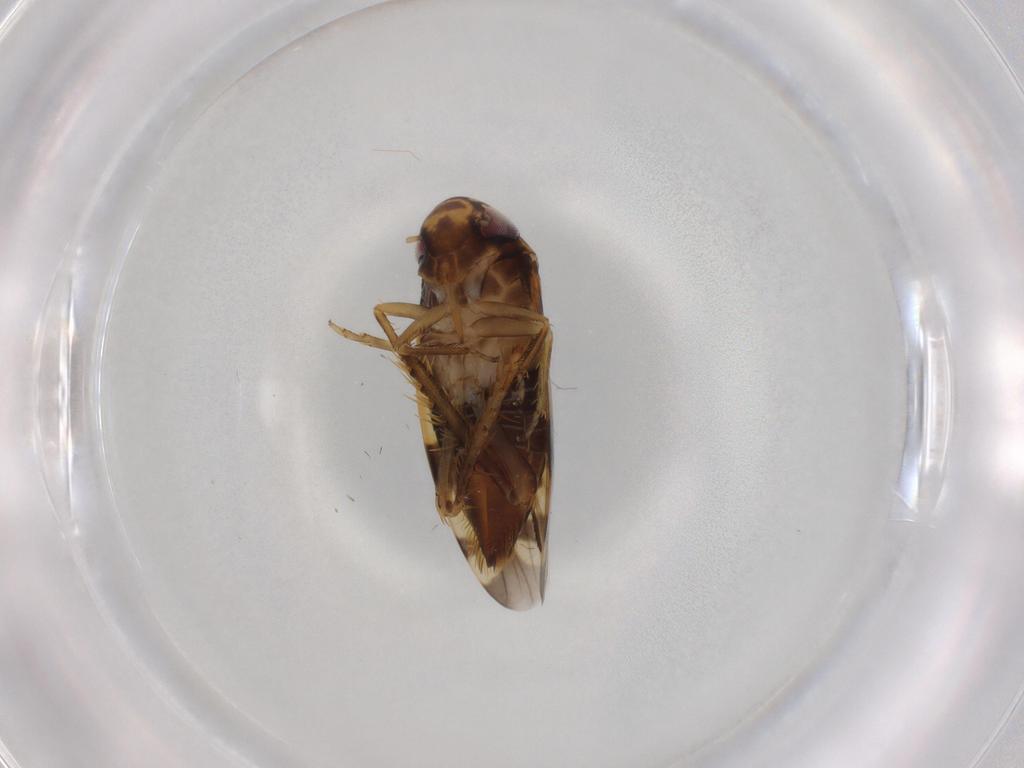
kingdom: Animalia
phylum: Arthropoda
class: Insecta
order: Hemiptera
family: Cicadellidae
